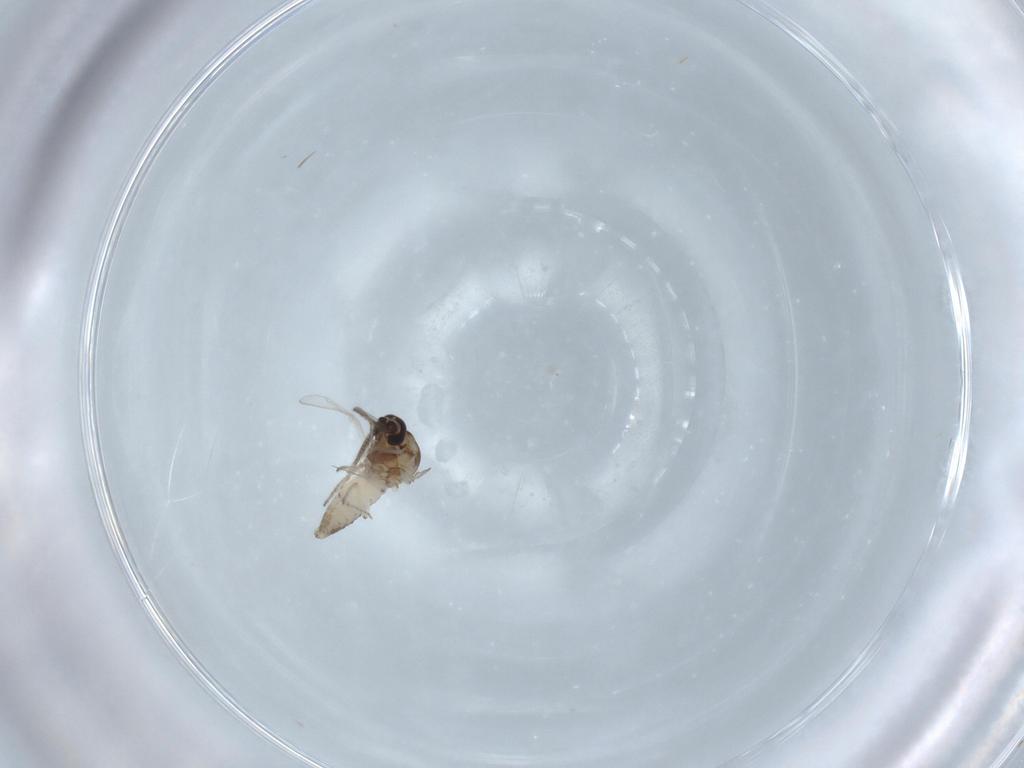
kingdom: Animalia
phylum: Arthropoda
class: Insecta
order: Diptera
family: Ceratopogonidae
